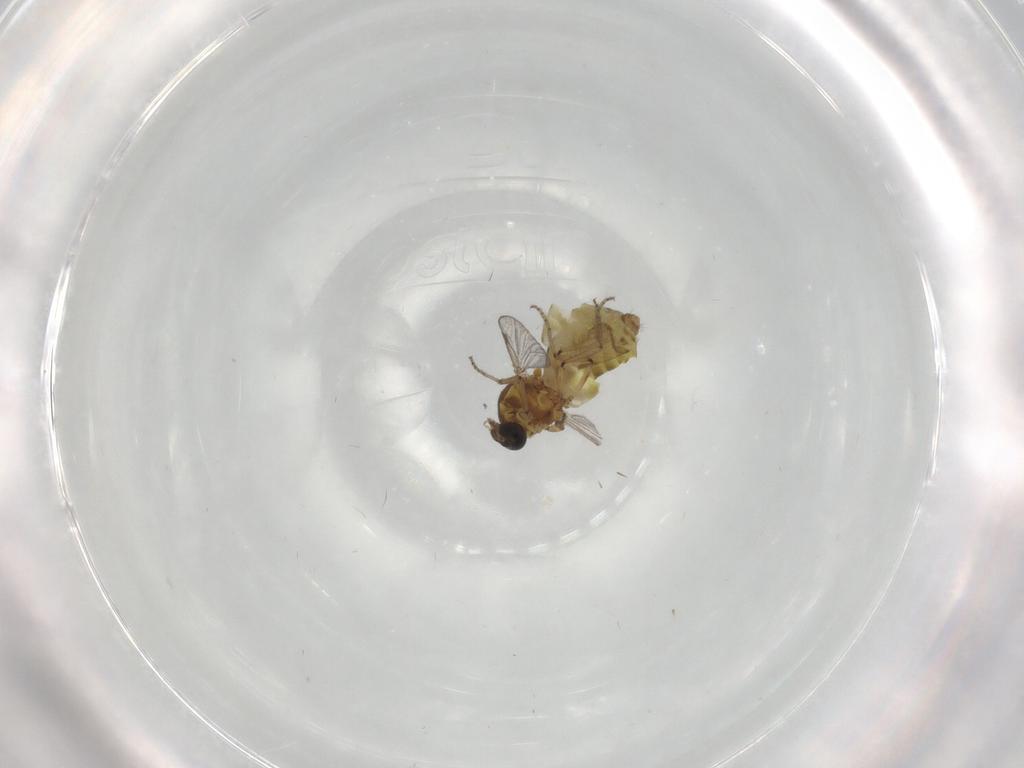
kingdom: Animalia
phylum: Arthropoda
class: Insecta
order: Diptera
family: Ceratopogonidae
